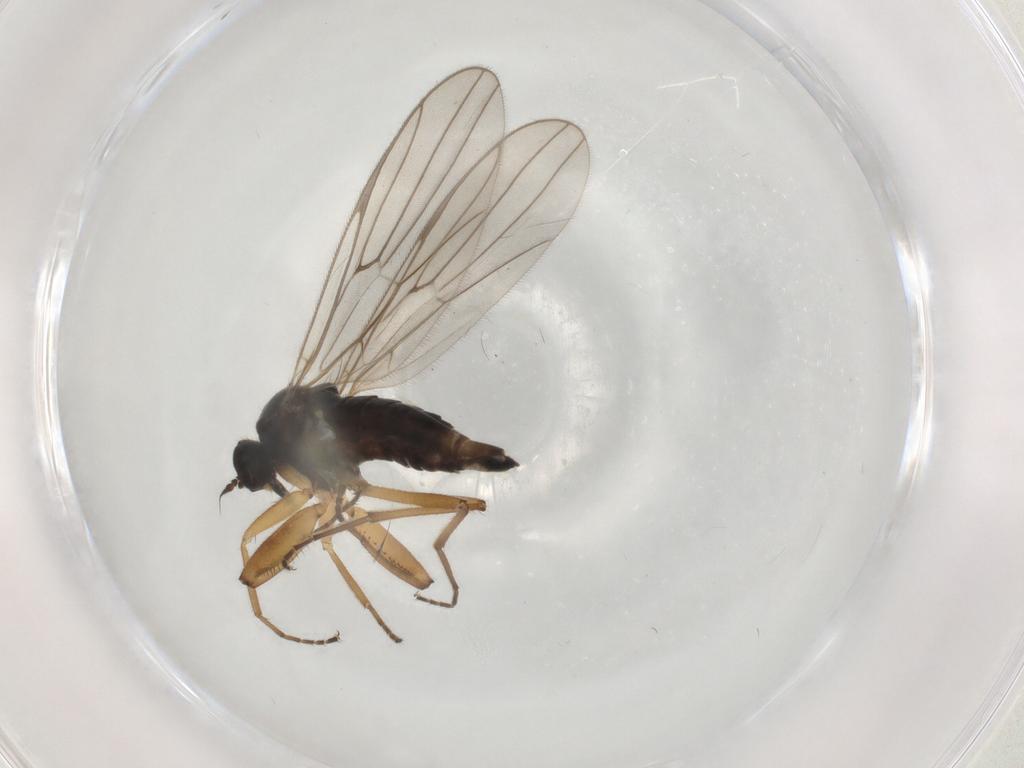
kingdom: Animalia
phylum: Arthropoda
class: Insecta
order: Diptera
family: Hybotidae
